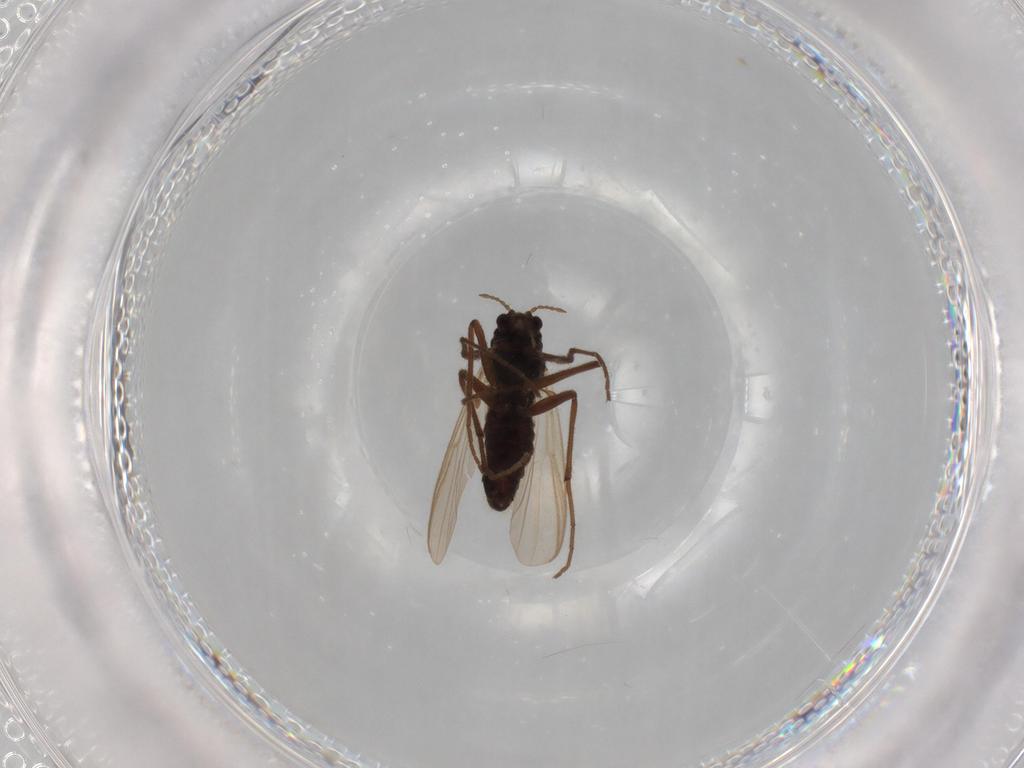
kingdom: Animalia
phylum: Arthropoda
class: Insecta
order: Diptera
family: Chironomidae
